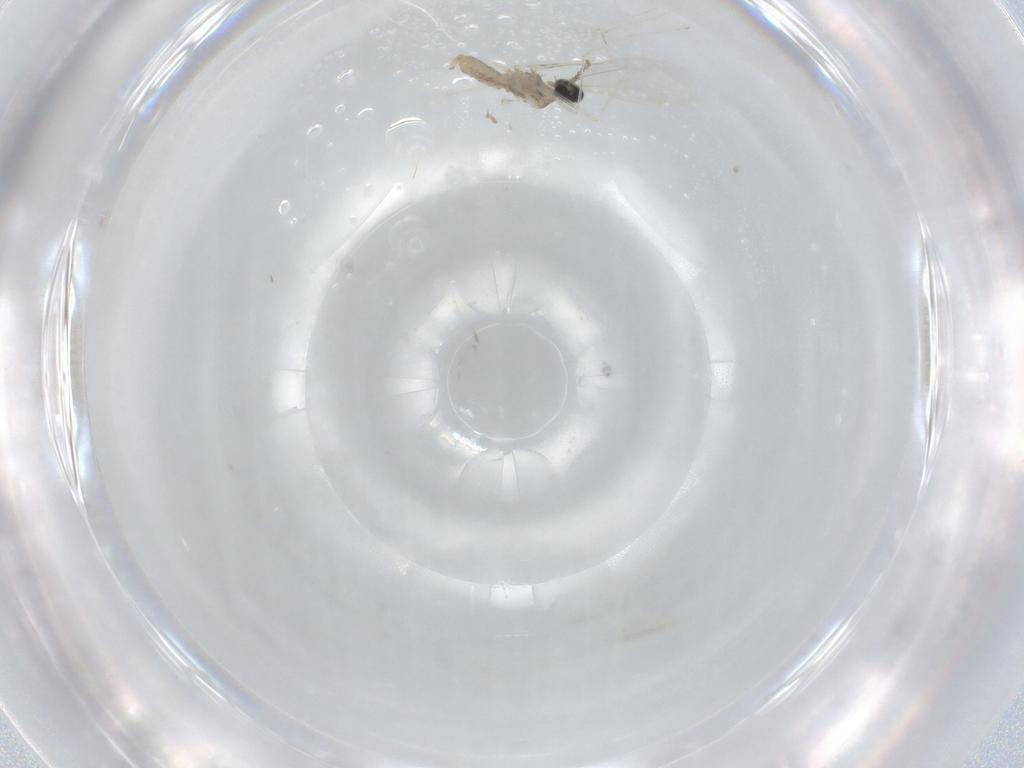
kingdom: Animalia
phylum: Arthropoda
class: Insecta
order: Diptera
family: Cecidomyiidae
